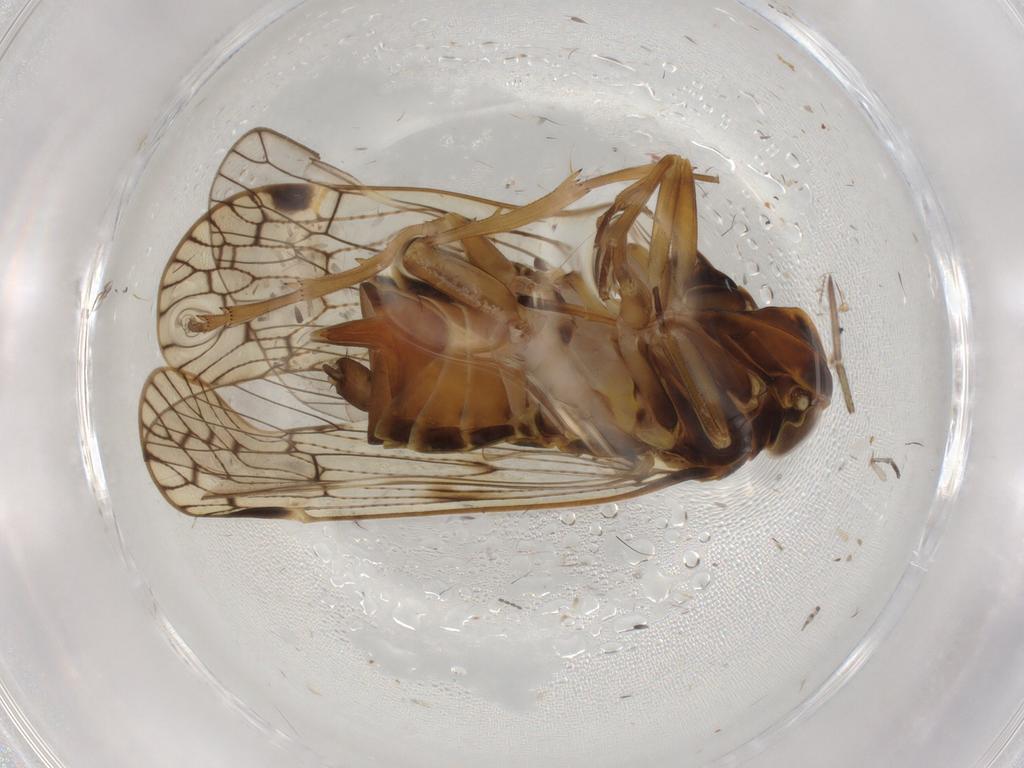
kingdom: Animalia
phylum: Arthropoda
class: Insecta
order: Hemiptera
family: Cixiidae
